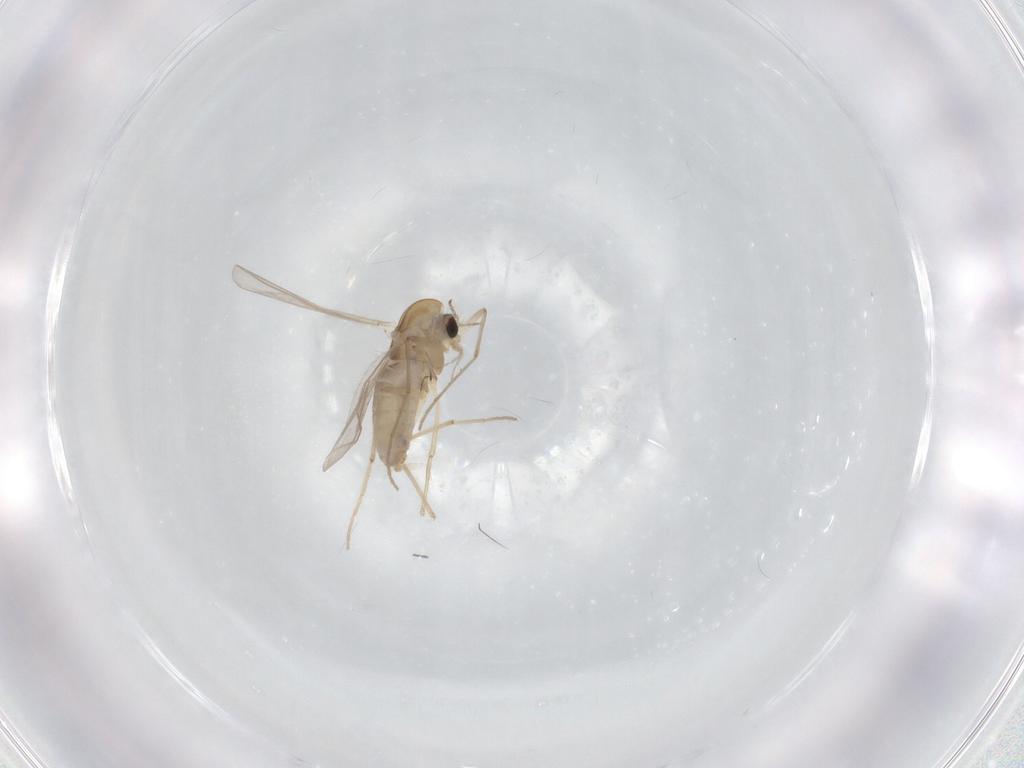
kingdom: Animalia
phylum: Arthropoda
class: Insecta
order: Diptera
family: Chironomidae
